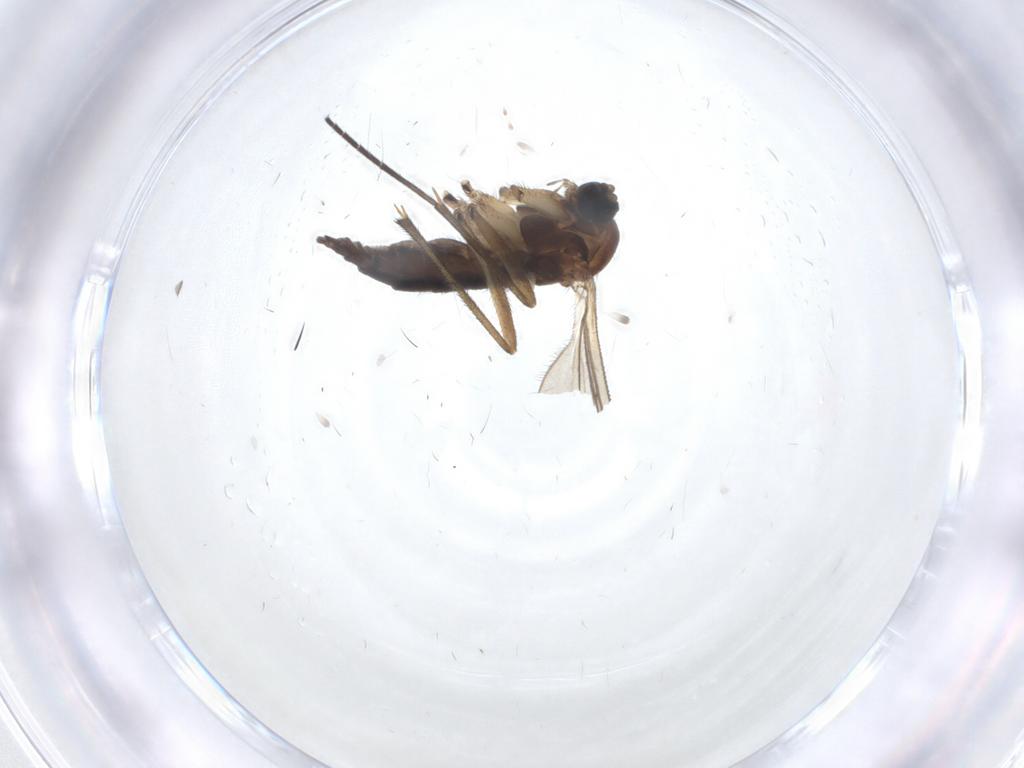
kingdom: Animalia
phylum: Arthropoda
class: Insecta
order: Diptera
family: Sciaridae
